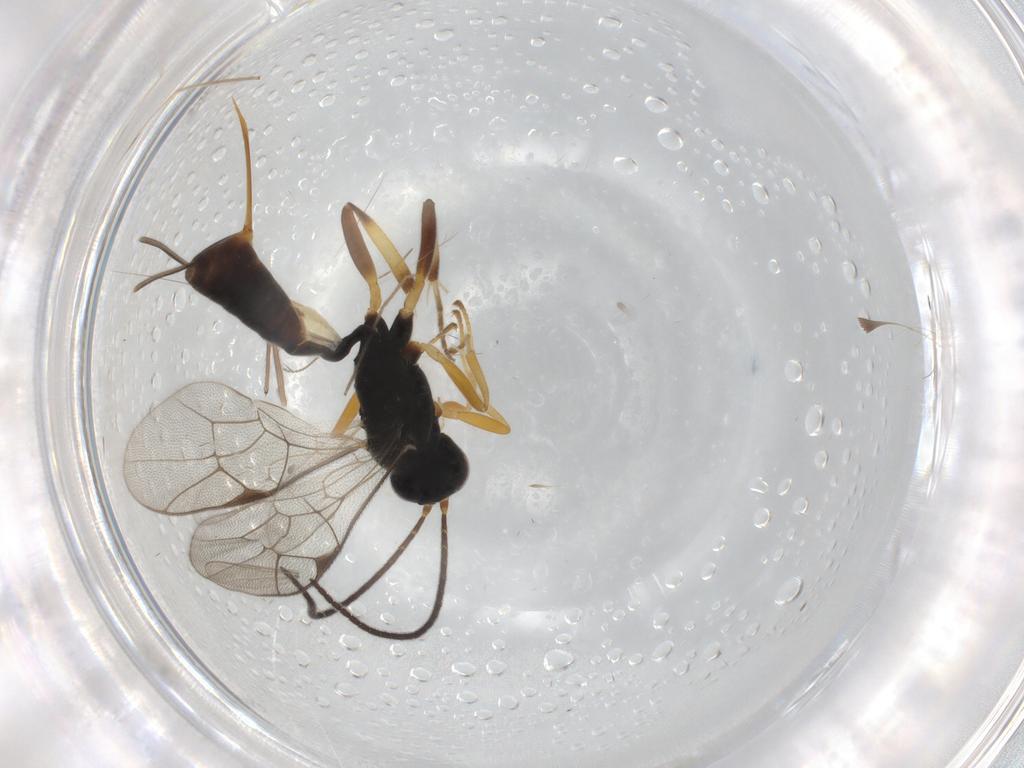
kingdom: Animalia
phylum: Arthropoda
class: Insecta
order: Hymenoptera
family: Ichneumonidae
